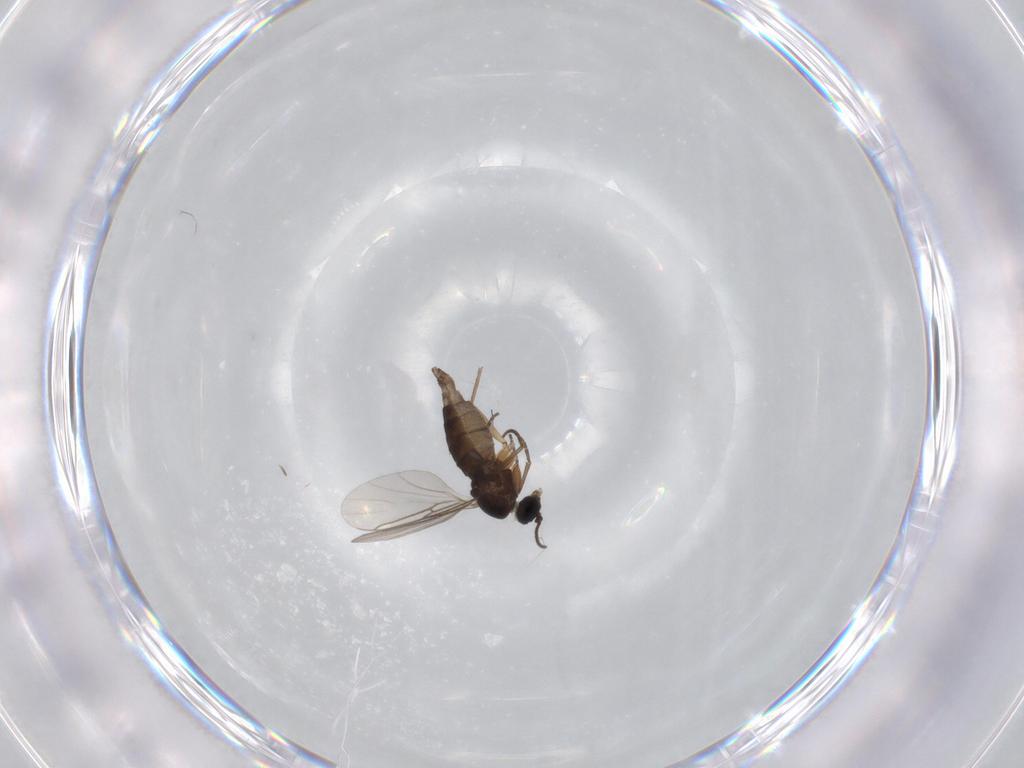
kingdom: Animalia
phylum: Arthropoda
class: Insecta
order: Diptera
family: Sciaridae
